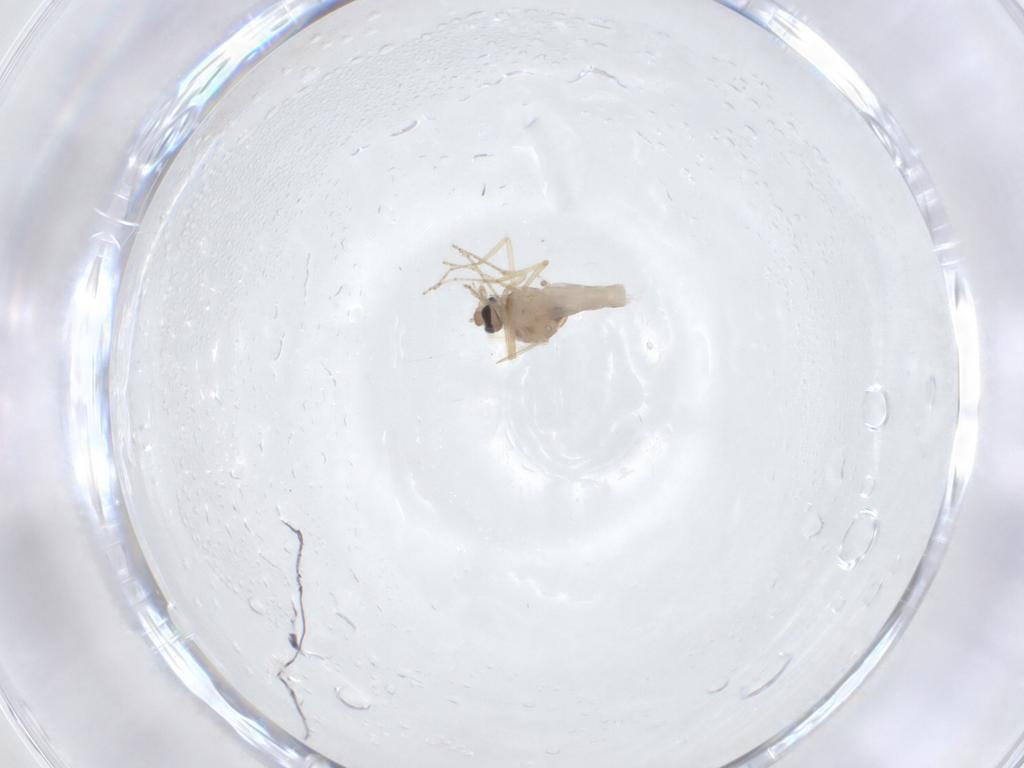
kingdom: Animalia
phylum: Arthropoda
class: Insecta
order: Diptera
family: Ceratopogonidae
